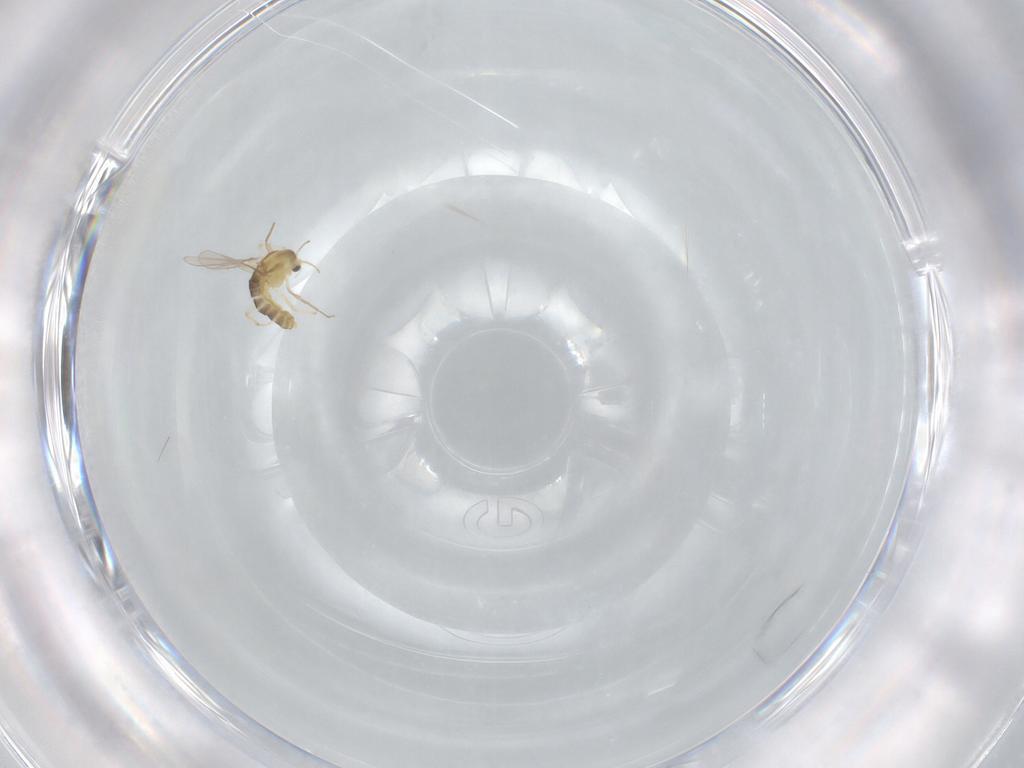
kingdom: Animalia
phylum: Arthropoda
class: Insecta
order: Diptera
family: Chironomidae
